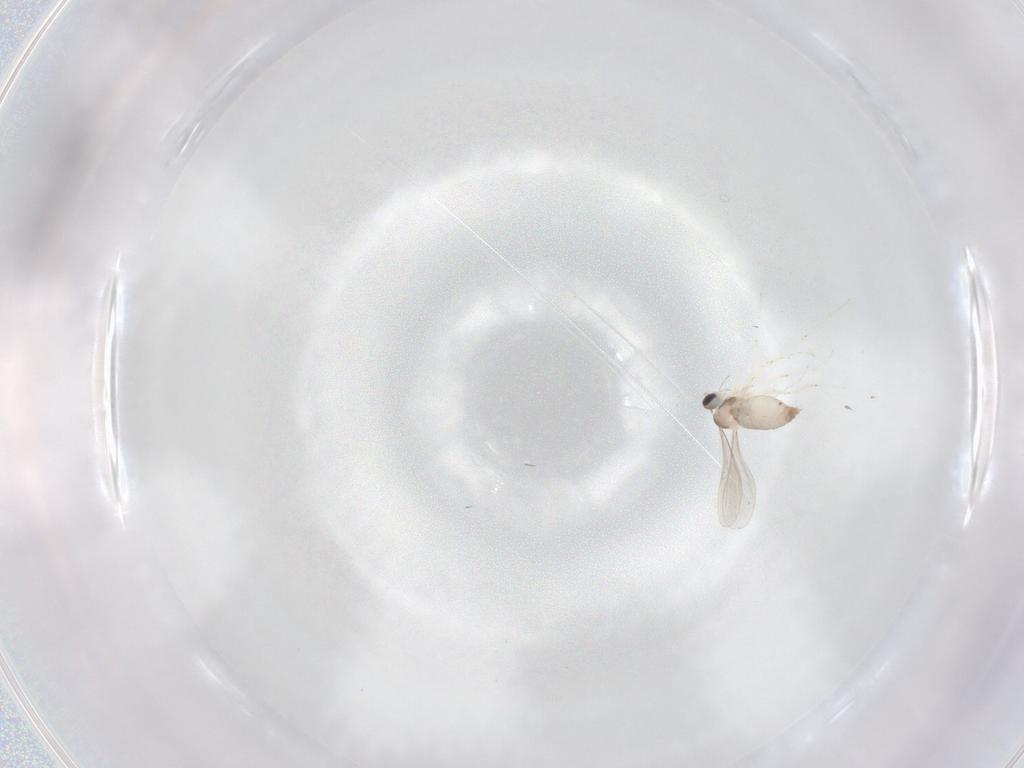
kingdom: Animalia
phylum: Arthropoda
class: Insecta
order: Diptera
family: Cecidomyiidae
